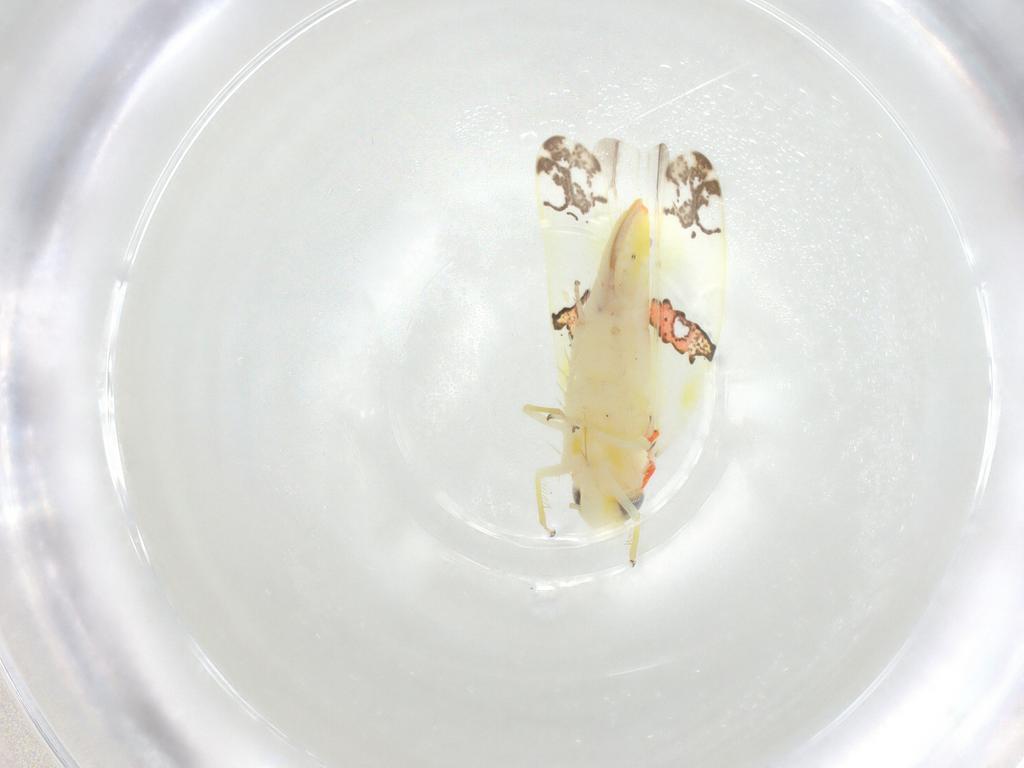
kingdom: Animalia
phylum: Arthropoda
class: Insecta
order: Hemiptera
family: Cicadellidae
